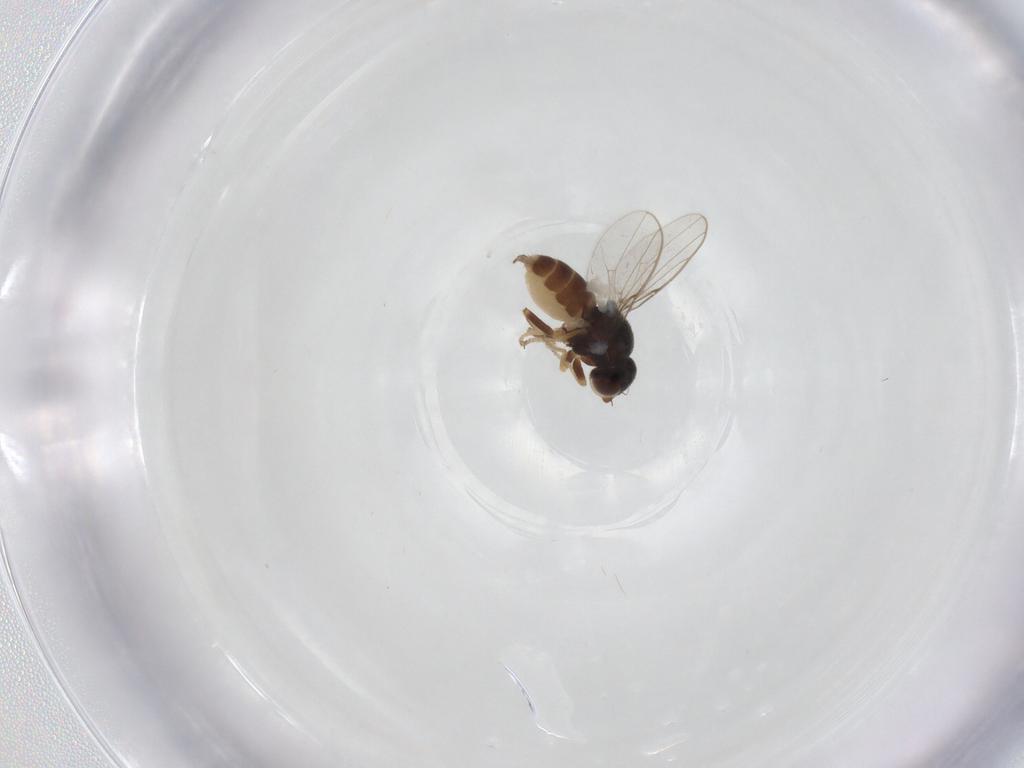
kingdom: Animalia
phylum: Arthropoda
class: Insecta
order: Diptera
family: Chloropidae
